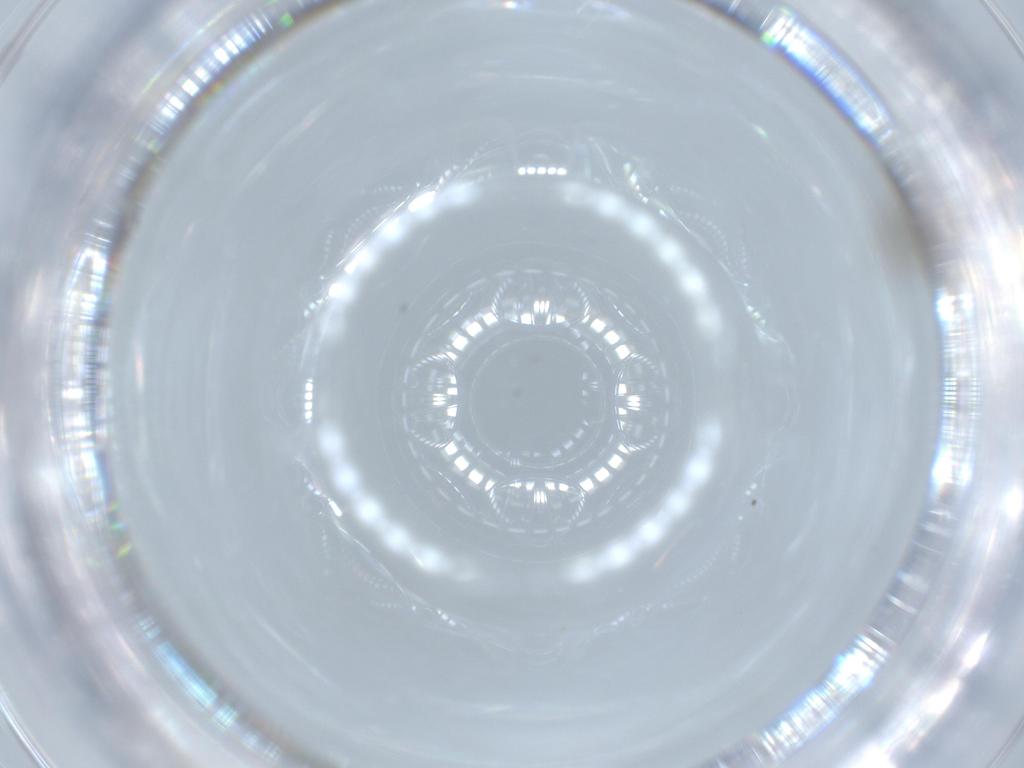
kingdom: Animalia
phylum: Arthropoda
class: Insecta
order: Diptera
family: Cecidomyiidae
